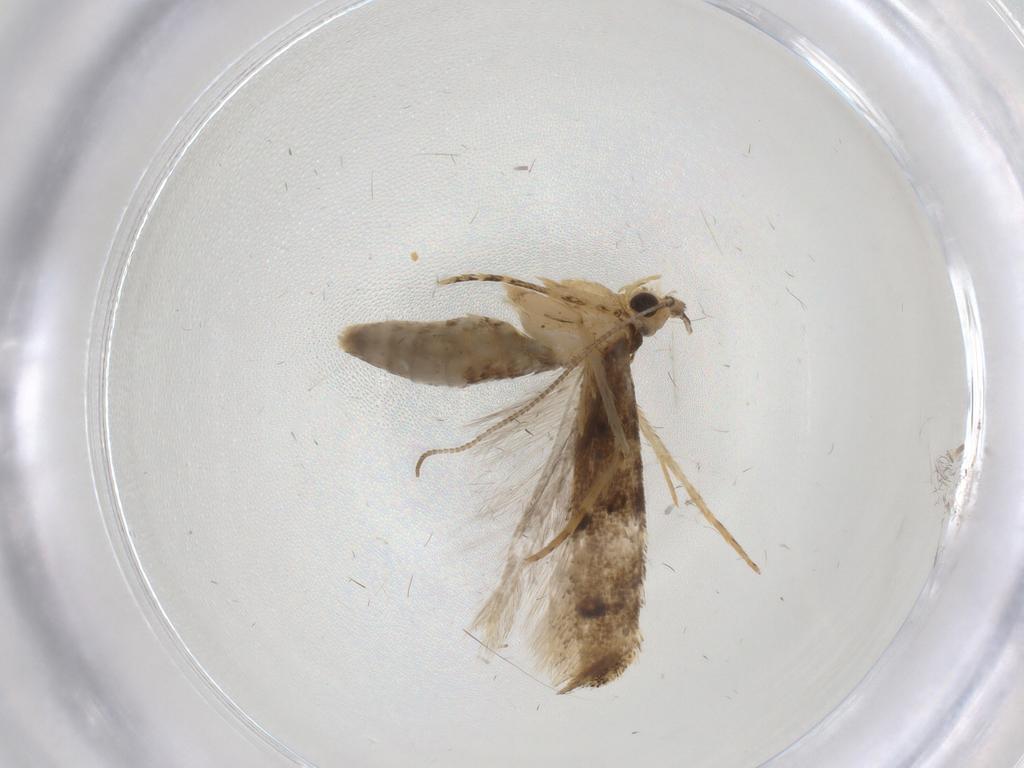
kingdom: Animalia
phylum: Arthropoda
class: Insecta
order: Lepidoptera
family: Tineidae
